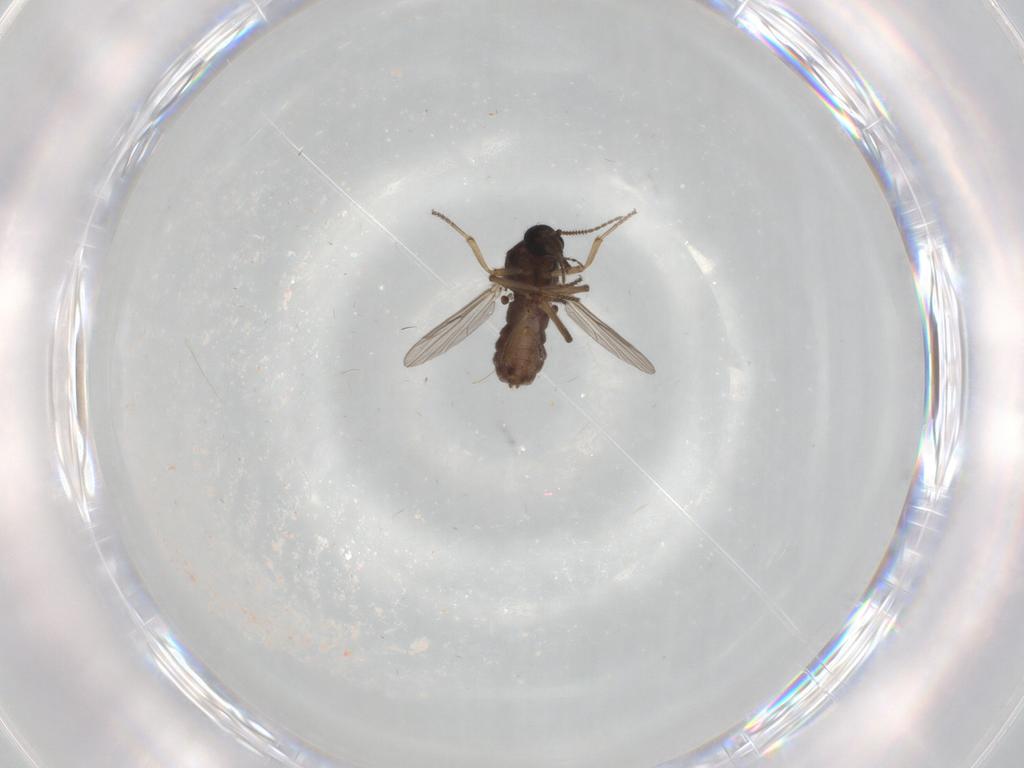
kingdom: Animalia
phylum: Arthropoda
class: Insecta
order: Diptera
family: Ceratopogonidae
